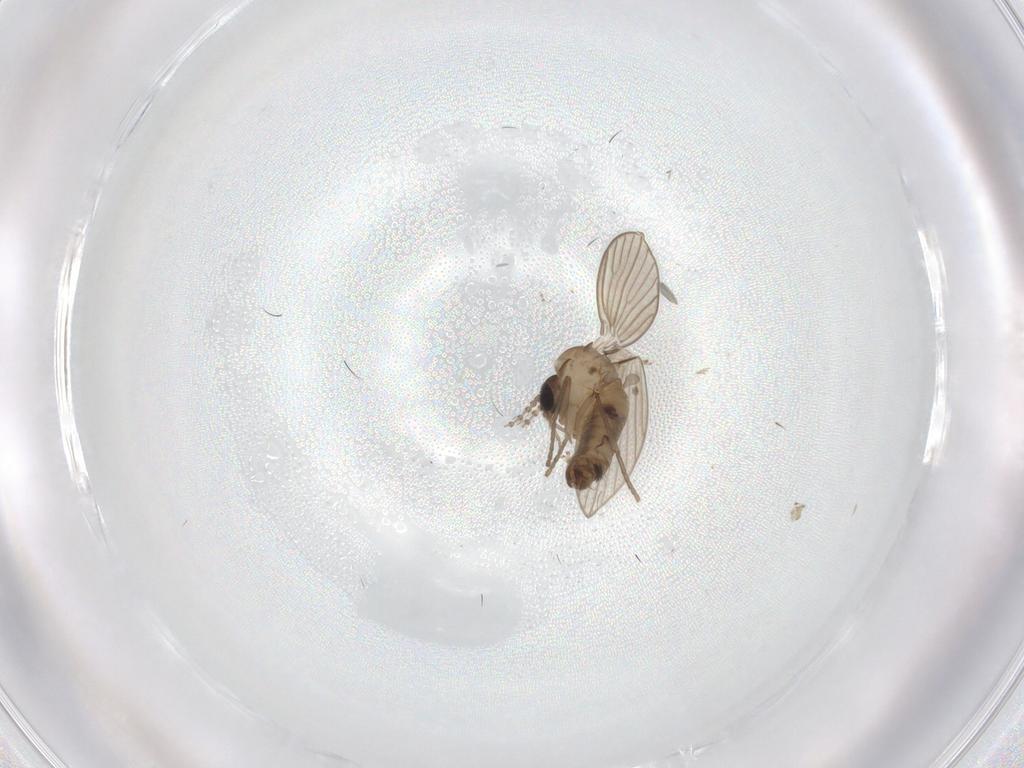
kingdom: Animalia
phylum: Arthropoda
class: Insecta
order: Diptera
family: Psychodidae
